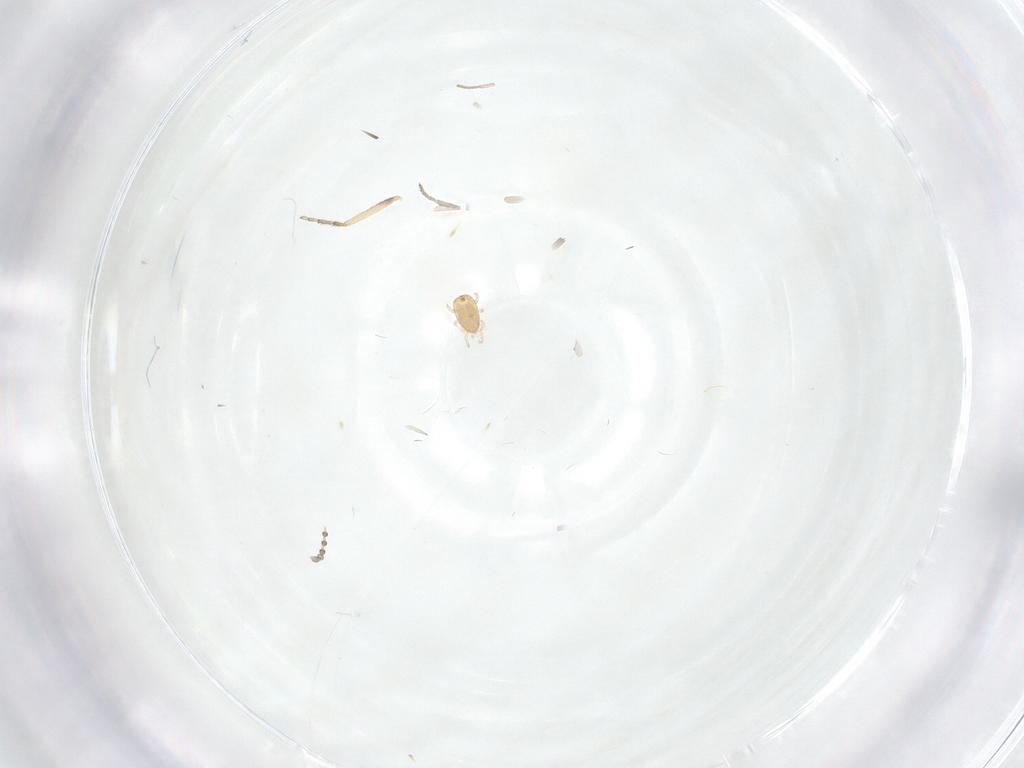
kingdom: Animalia
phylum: Arthropoda
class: Arachnida
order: Mesostigmata
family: Ascidae
